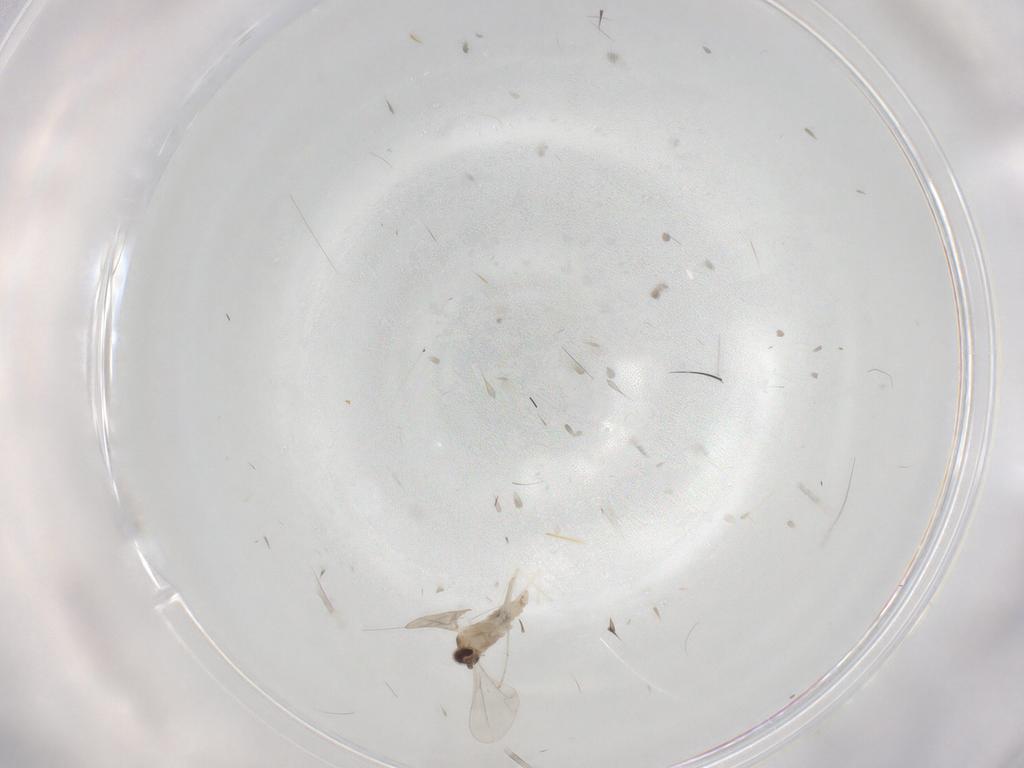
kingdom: Animalia
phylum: Arthropoda
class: Insecta
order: Diptera
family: Cecidomyiidae
